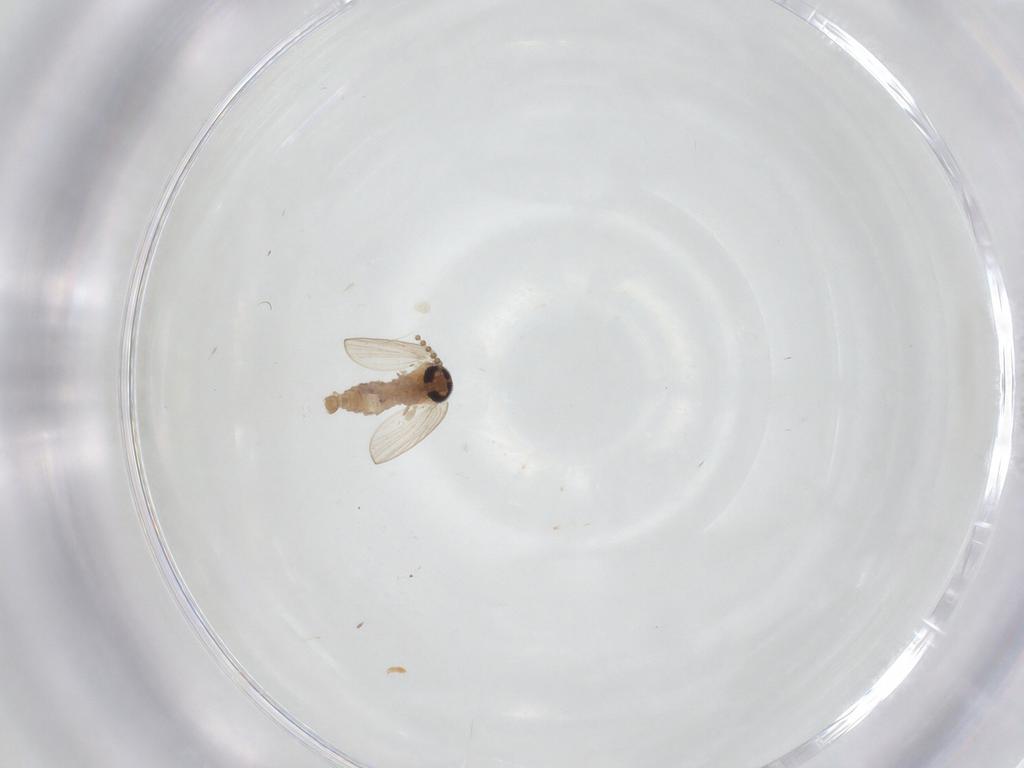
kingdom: Animalia
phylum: Arthropoda
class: Insecta
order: Diptera
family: Psychodidae
